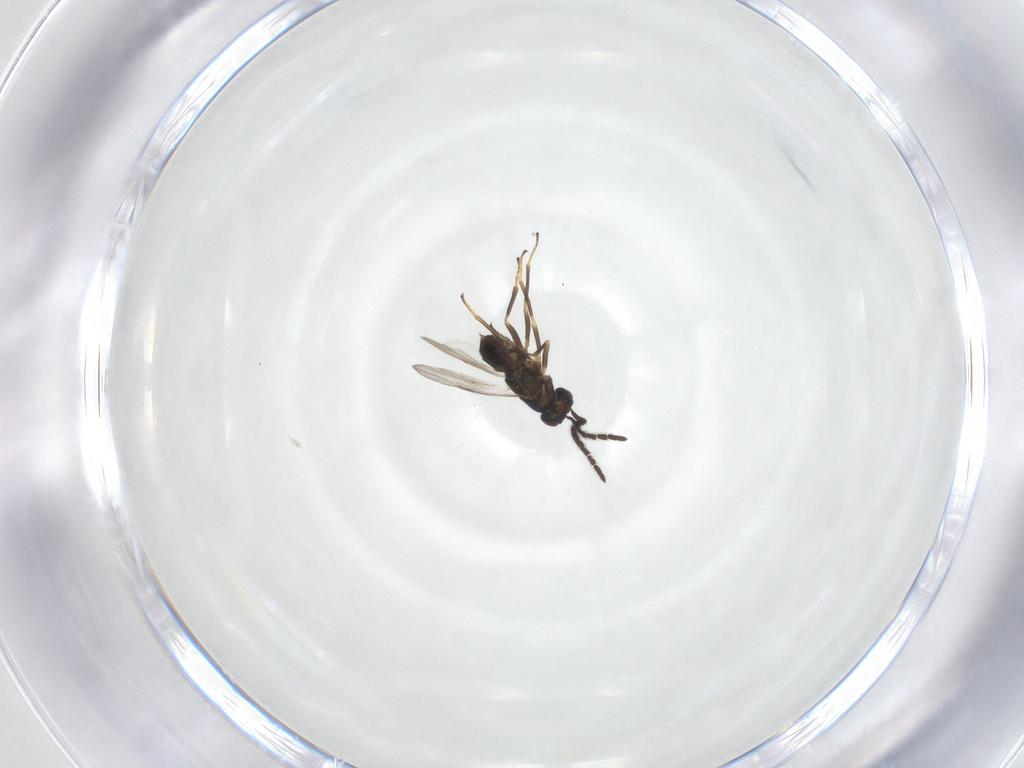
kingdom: Animalia
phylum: Arthropoda
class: Insecta
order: Hymenoptera
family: Encyrtidae
